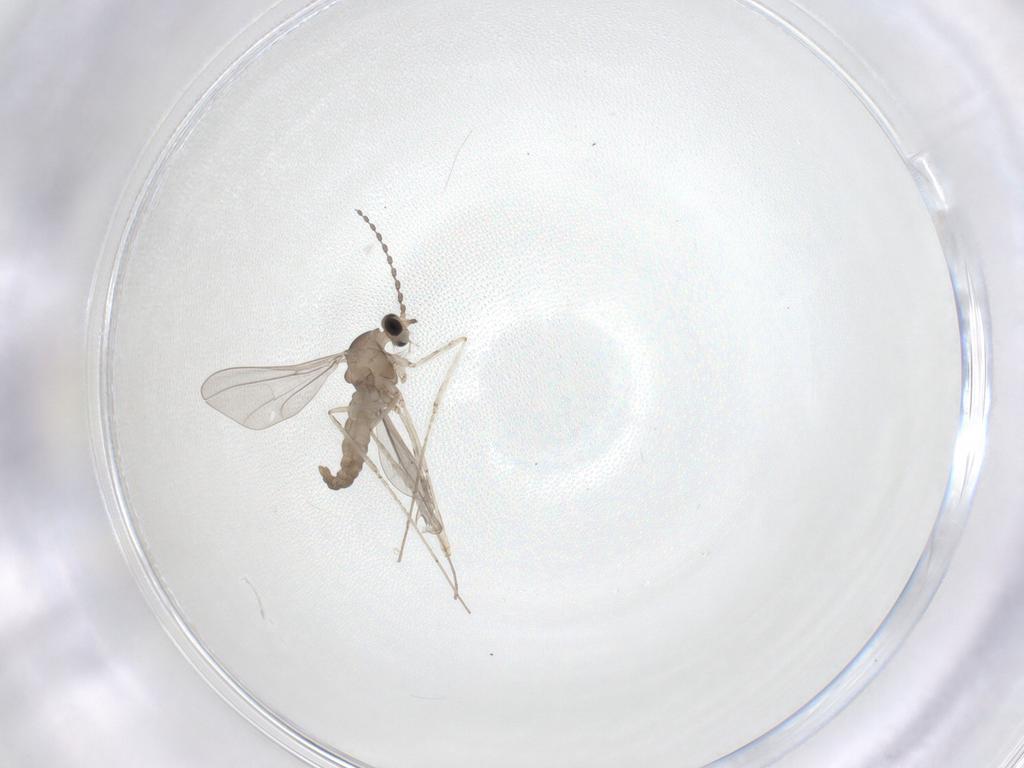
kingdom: Animalia
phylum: Arthropoda
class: Insecta
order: Diptera
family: Cecidomyiidae
